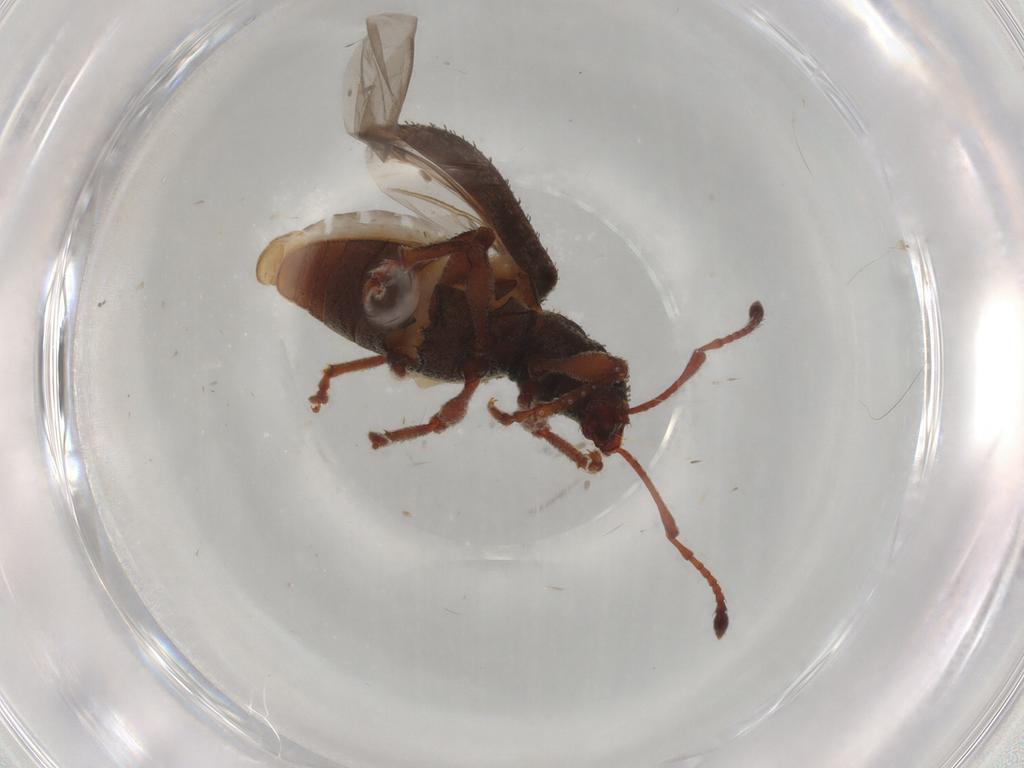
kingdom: Animalia
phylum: Arthropoda
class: Insecta
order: Coleoptera
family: Curculionidae
